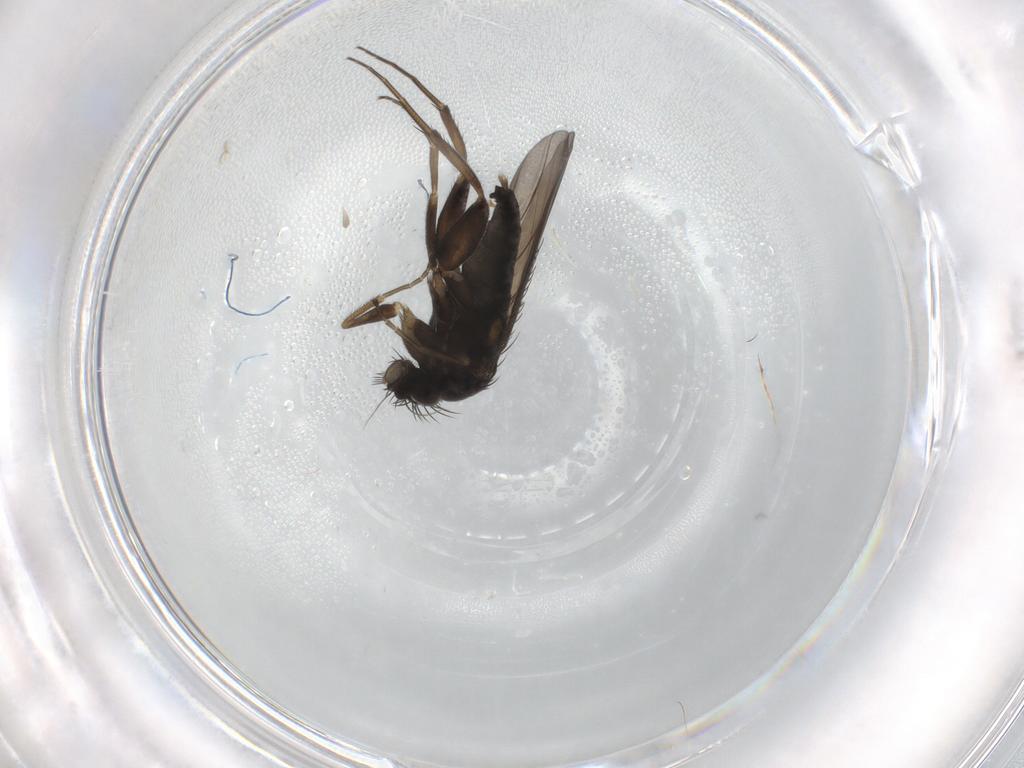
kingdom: Animalia
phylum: Arthropoda
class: Insecta
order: Diptera
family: Phoridae
